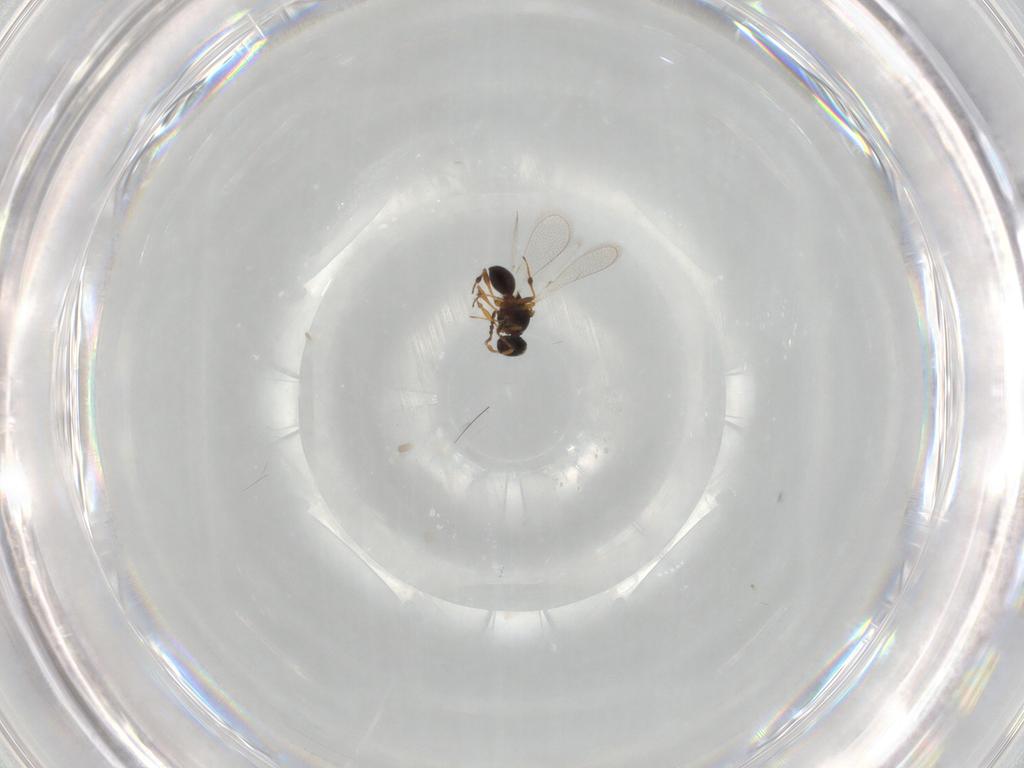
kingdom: Animalia
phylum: Arthropoda
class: Insecta
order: Hymenoptera
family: Platygastridae
